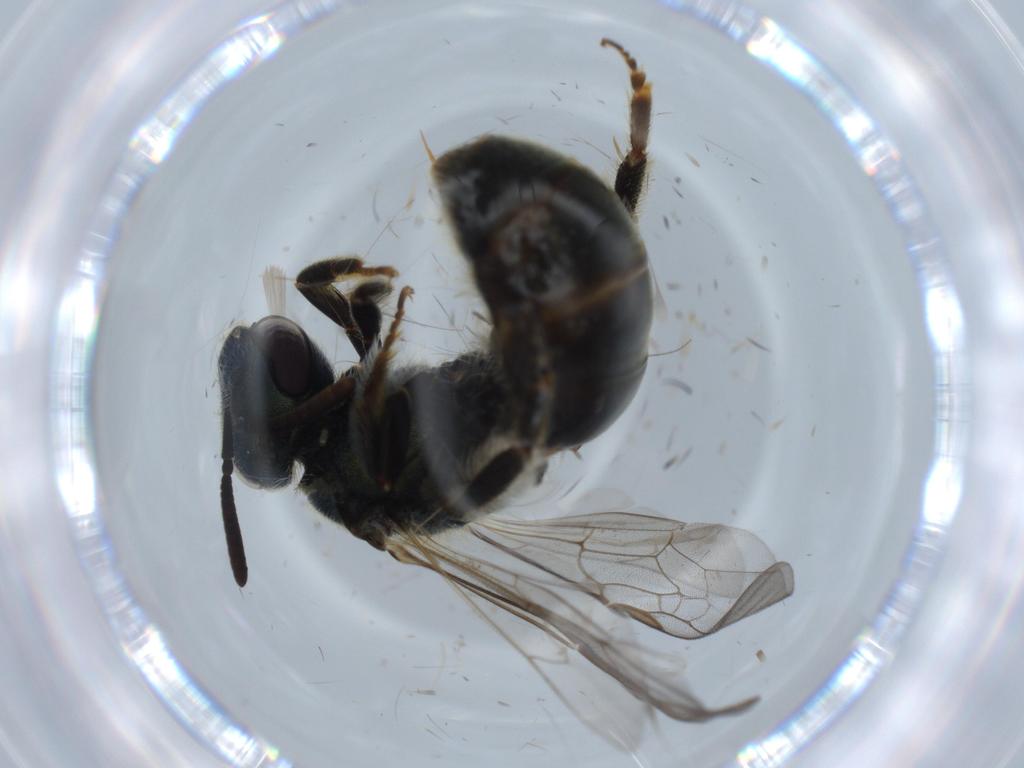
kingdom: Animalia
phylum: Arthropoda
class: Insecta
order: Hymenoptera
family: Halictidae
